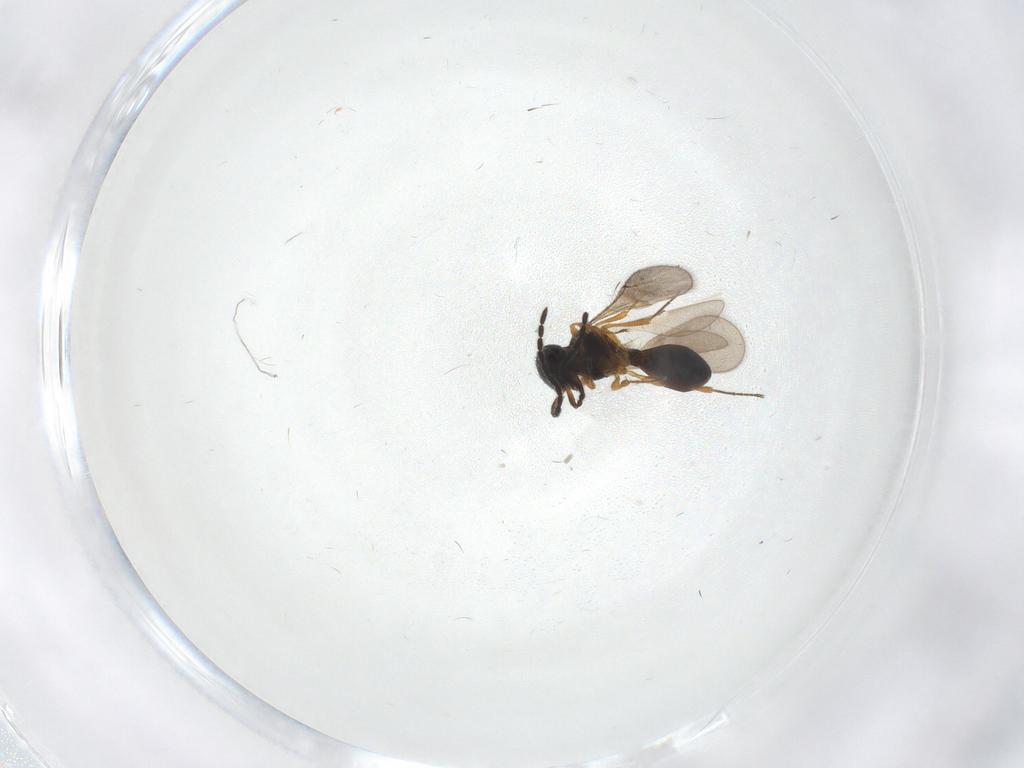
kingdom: Animalia
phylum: Arthropoda
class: Insecta
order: Hymenoptera
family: Scelionidae
